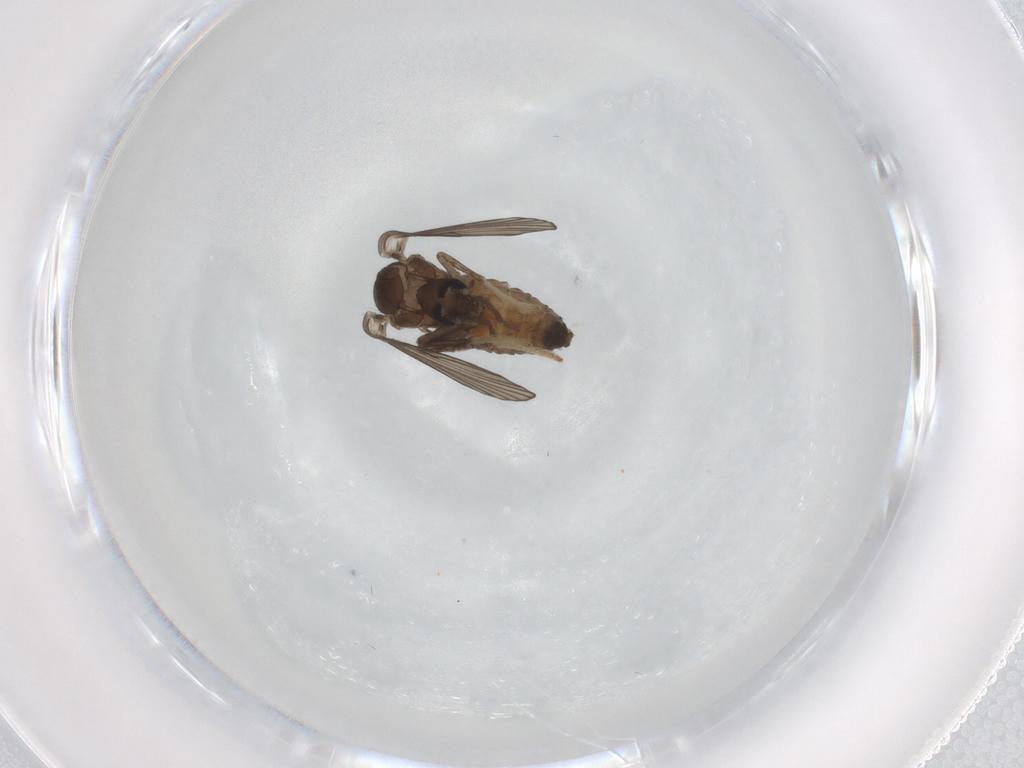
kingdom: Animalia
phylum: Arthropoda
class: Insecta
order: Diptera
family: Psychodidae
